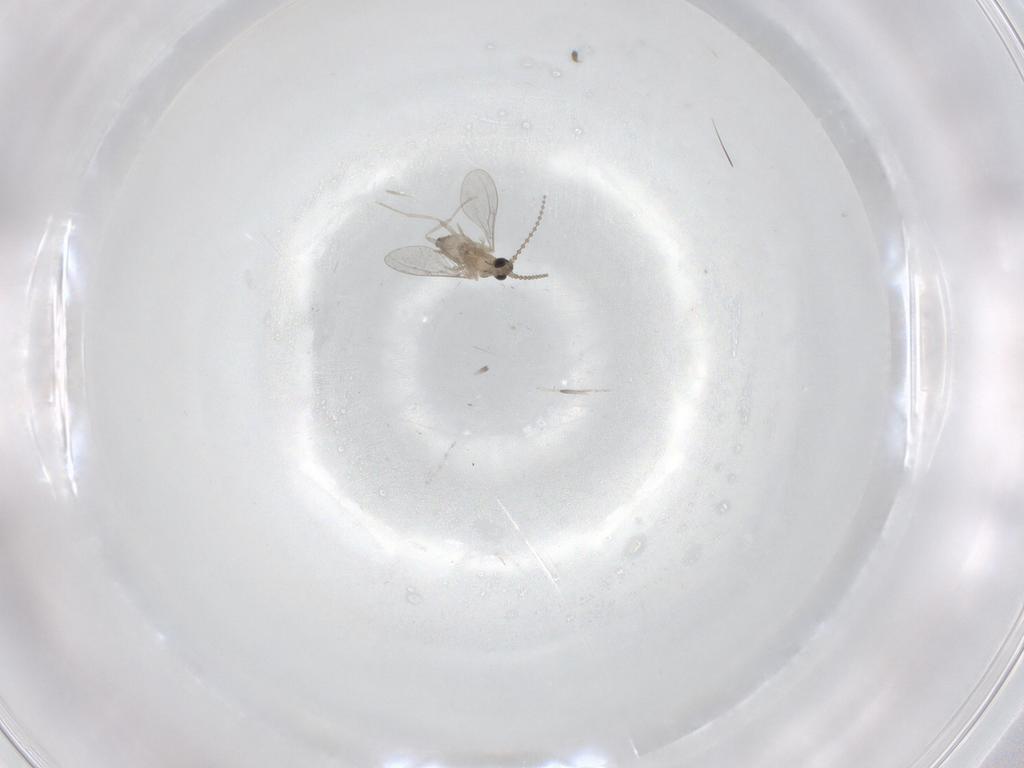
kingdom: Animalia
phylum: Arthropoda
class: Insecta
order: Diptera
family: Cecidomyiidae
